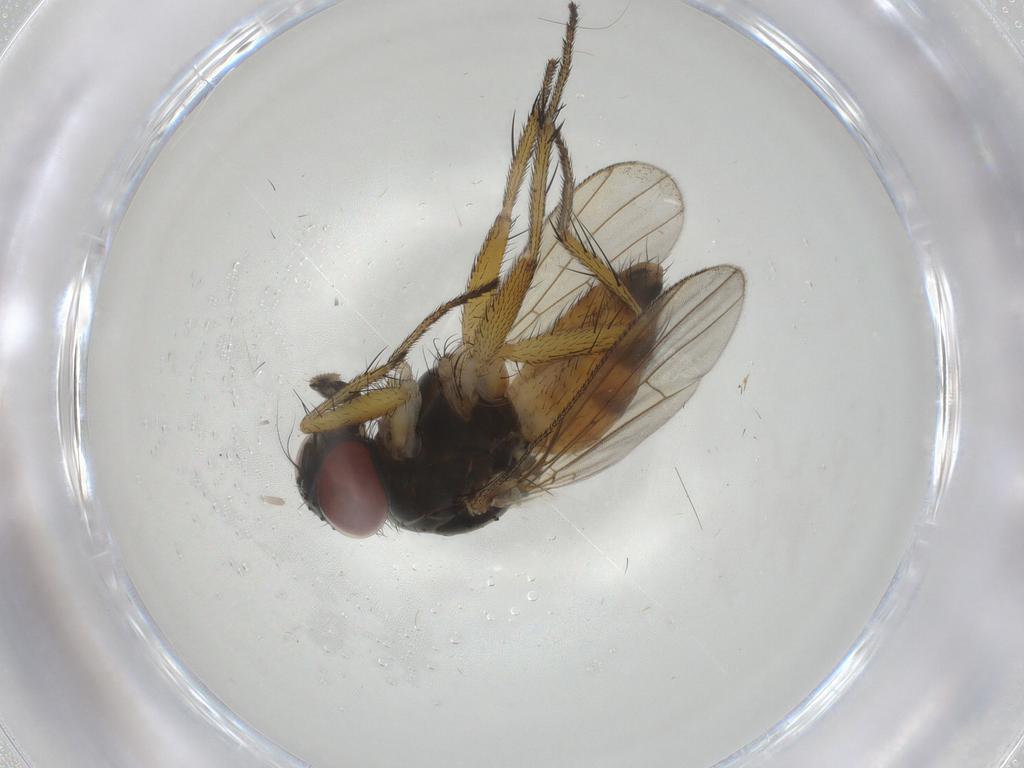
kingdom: Animalia
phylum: Arthropoda
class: Insecta
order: Diptera
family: Muscidae
